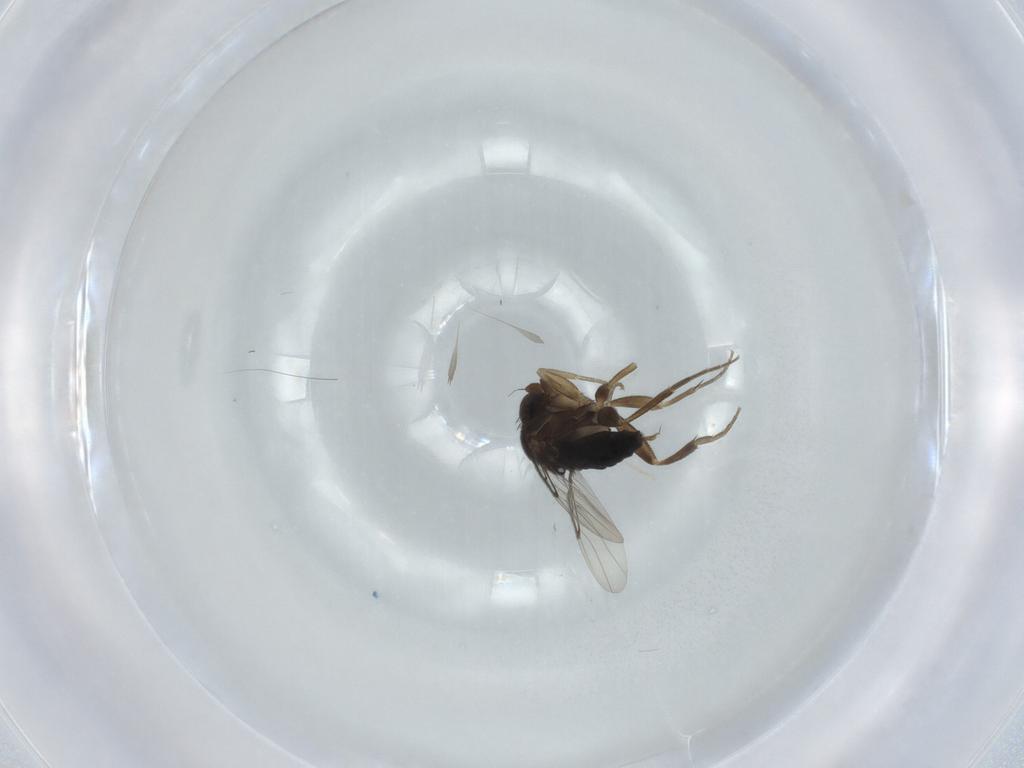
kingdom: Animalia
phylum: Arthropoda
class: Insecta
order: Diptera
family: Phoridae
